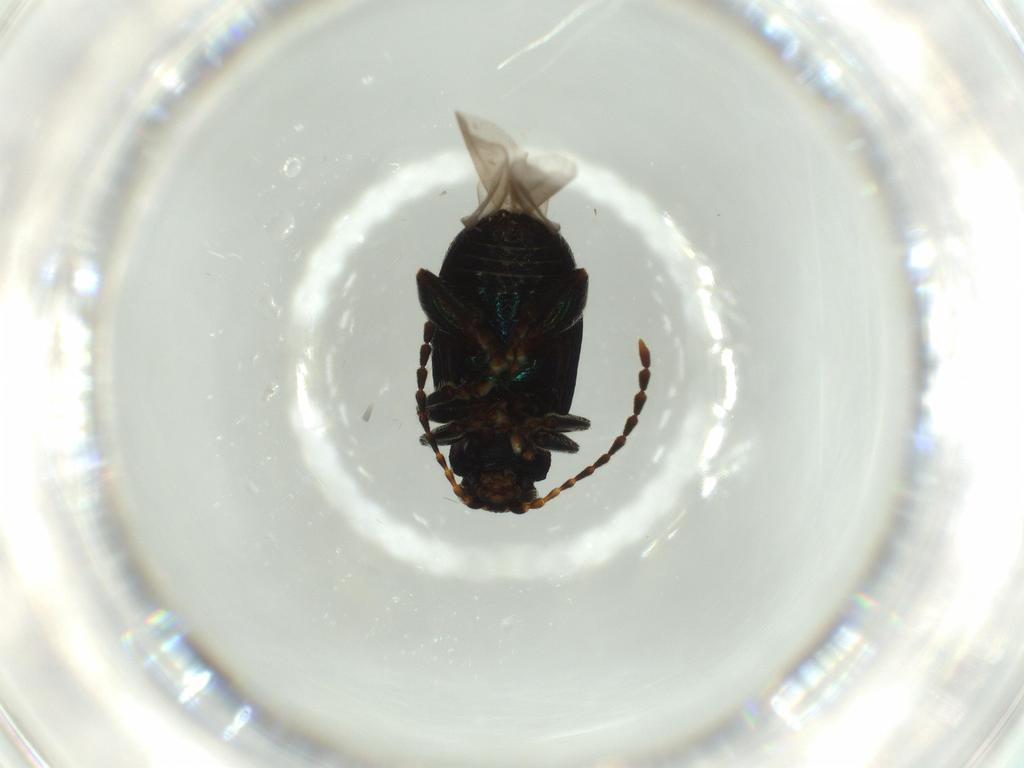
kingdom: Animalia
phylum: Arthropoda
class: Insecta
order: Coleoptera
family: Chrysomelidae
